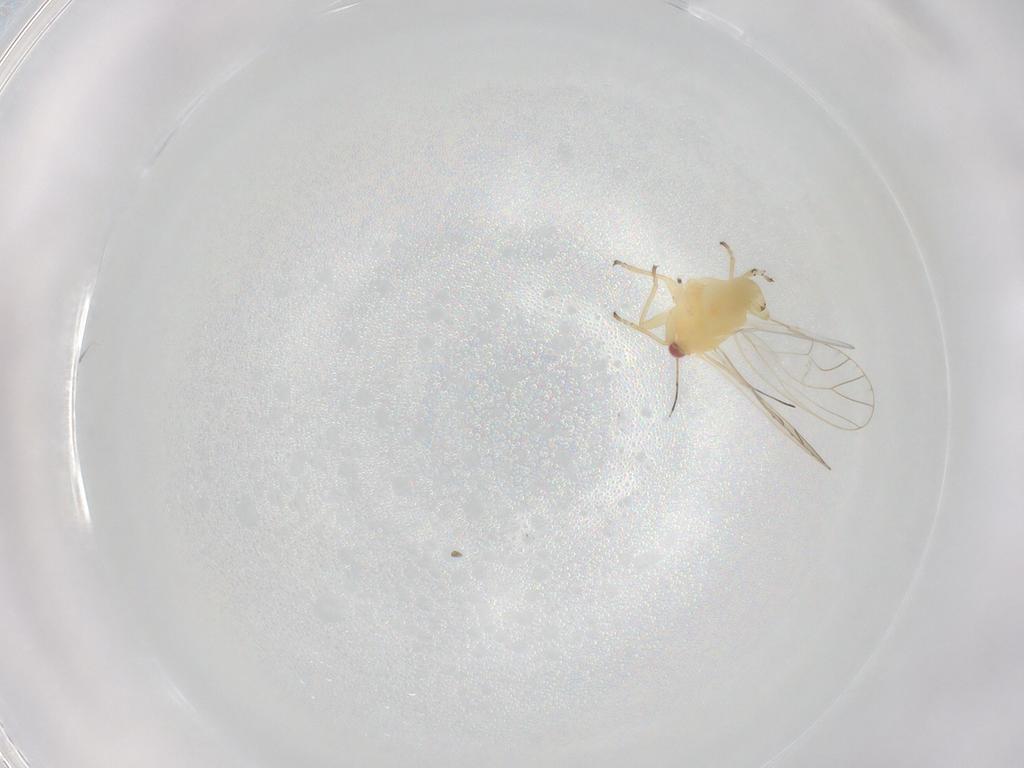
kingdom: Animalia
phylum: Arthropoda
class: Insecta
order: Hemiptera
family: Psyllidae
